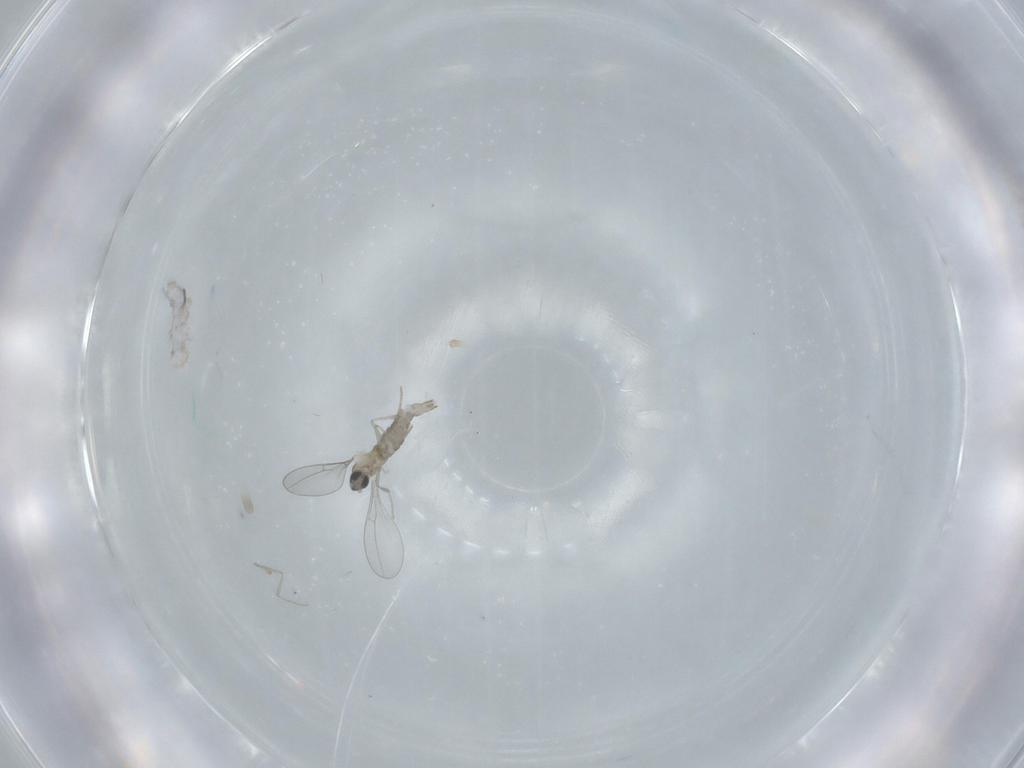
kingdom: Animalia
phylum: Arthropoda
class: Insecta
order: Diptera
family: Cecidomyiidae
